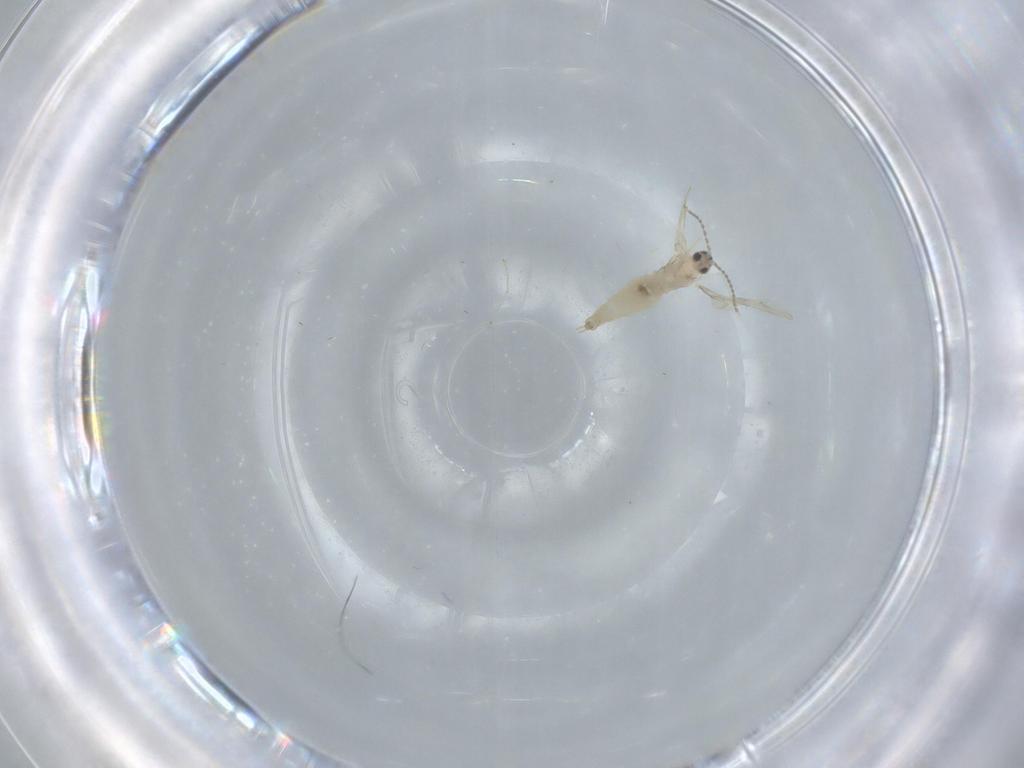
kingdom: Animalia
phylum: Arthropoda
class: Insecta
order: Diptera
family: Cecidomyiidae
